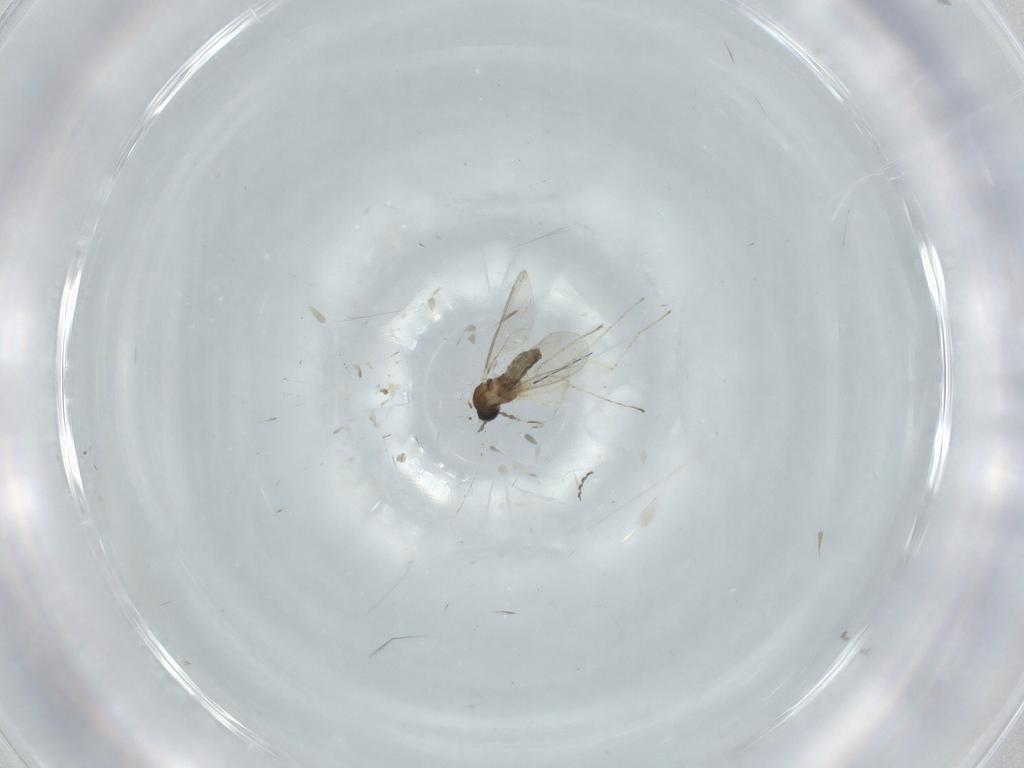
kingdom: Animalia
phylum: Arthropoda
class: Insecta
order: Diptera
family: Cecidomyiidae
